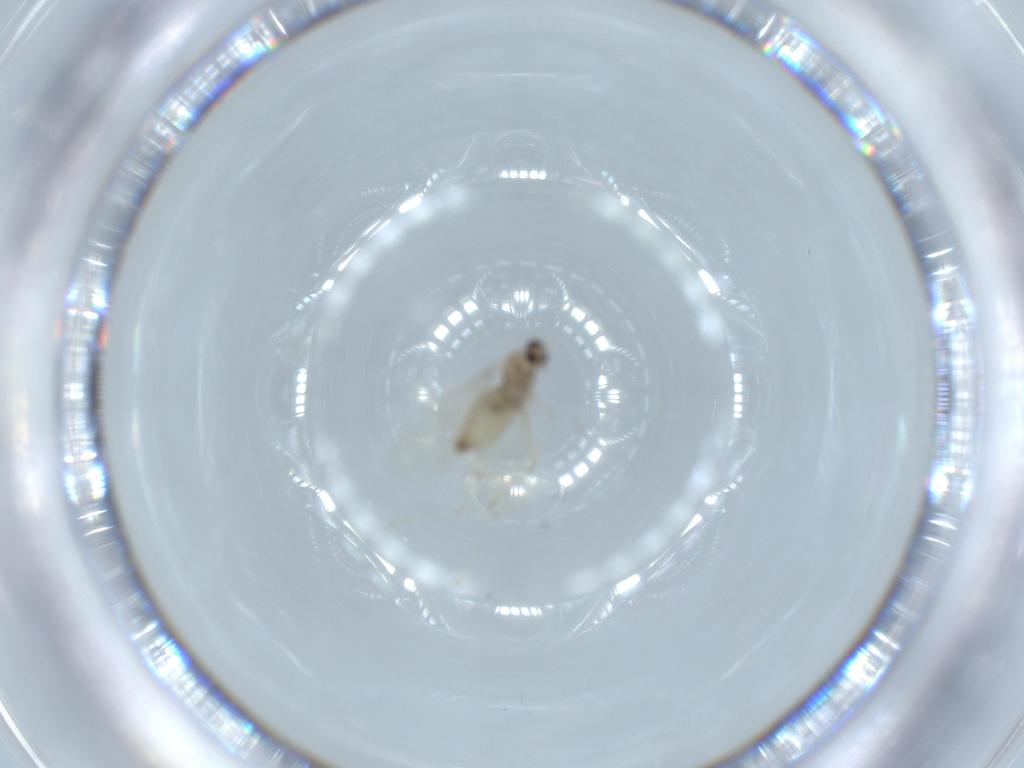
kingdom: Animalia
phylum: Arthropoda
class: Insecta
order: Diptera
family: Cecidomyiidae
